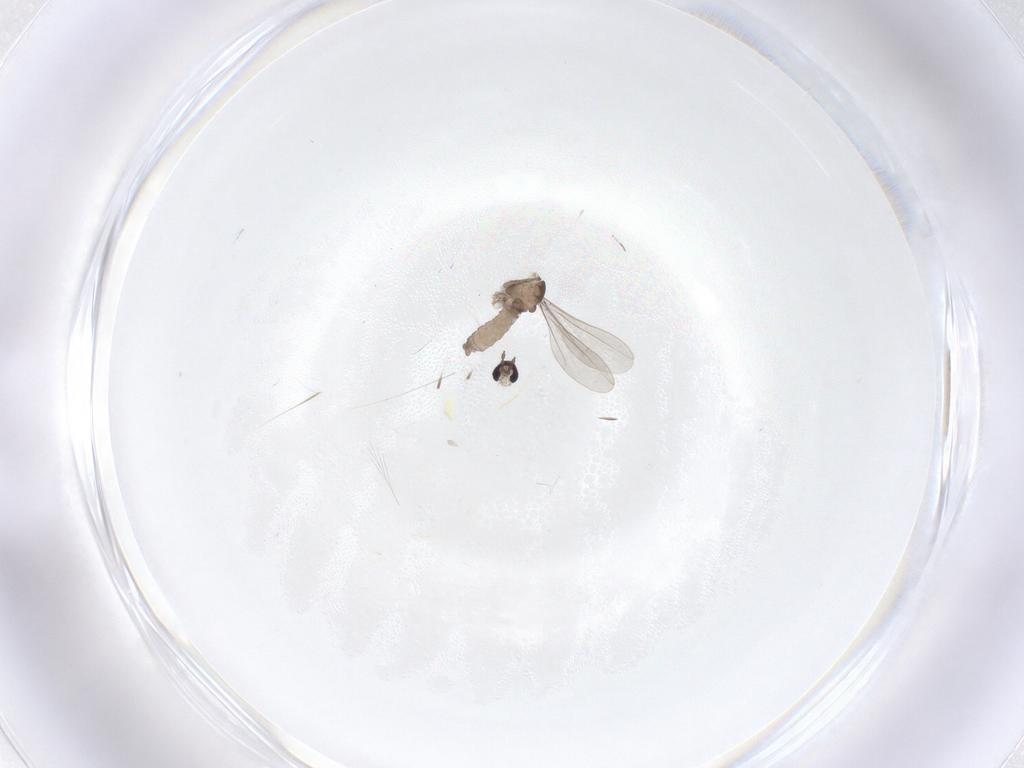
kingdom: Animalia
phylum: Arthropoda
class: Insecta
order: Diptera
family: Cecidomyiidae
